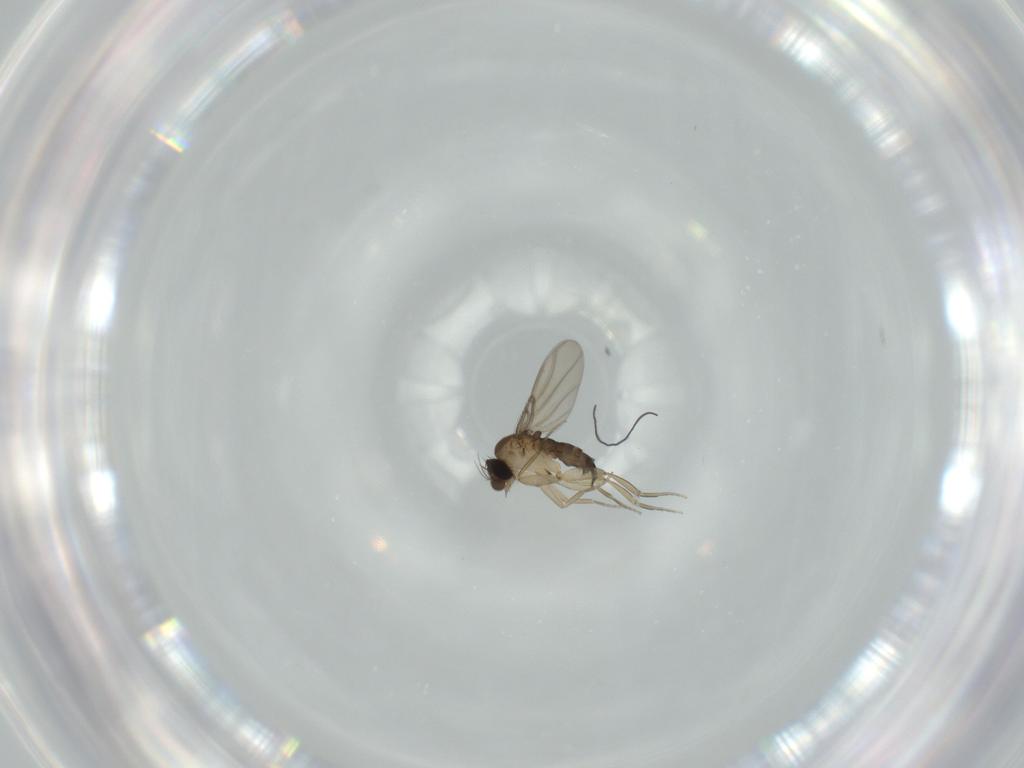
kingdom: Animalia
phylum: Arthropoda
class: Insecta
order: Diptera
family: Phoridae
